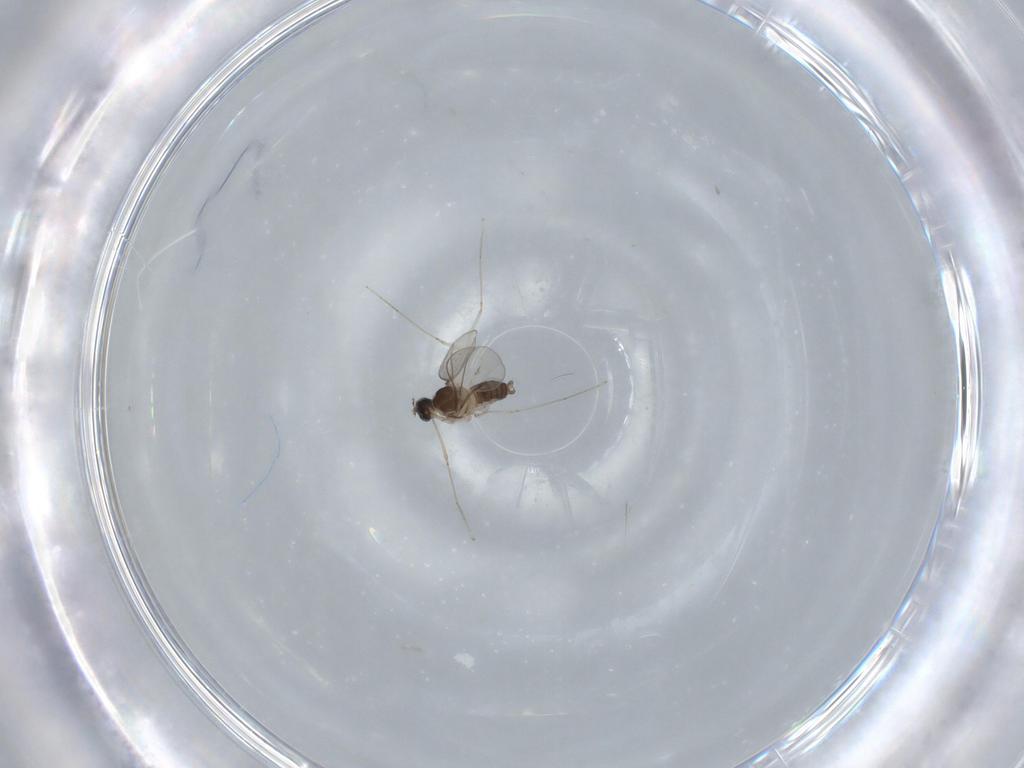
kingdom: Animalia
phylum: Arthropoda
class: Insecta
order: Diptera
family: Cecidomyiidae
